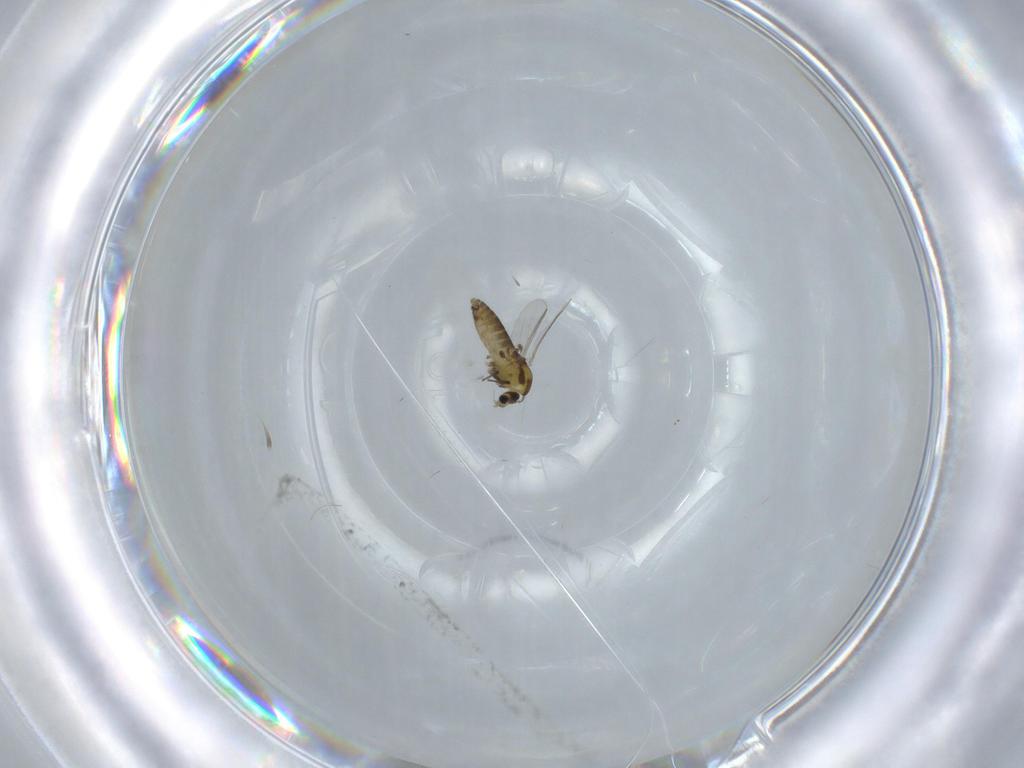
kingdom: Animalia
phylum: Arthropoda
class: Insecta
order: Diptera
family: Chironomidae
